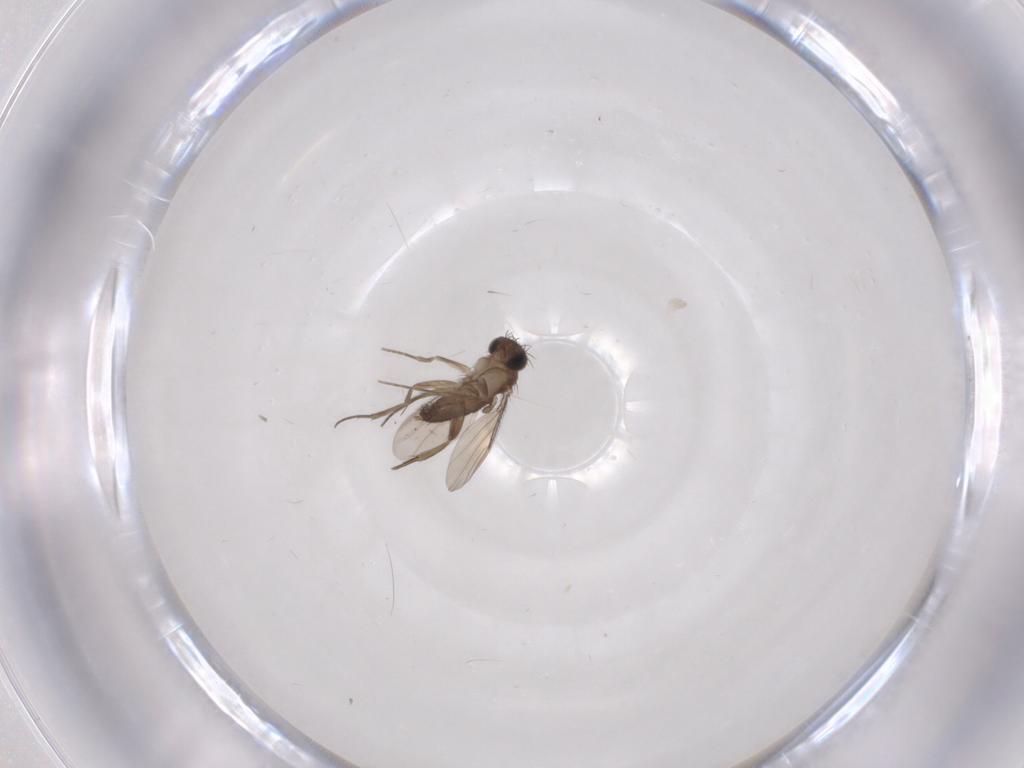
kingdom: Animalia
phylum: Arthropoda
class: Insecta
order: Diptera
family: Phoridae
